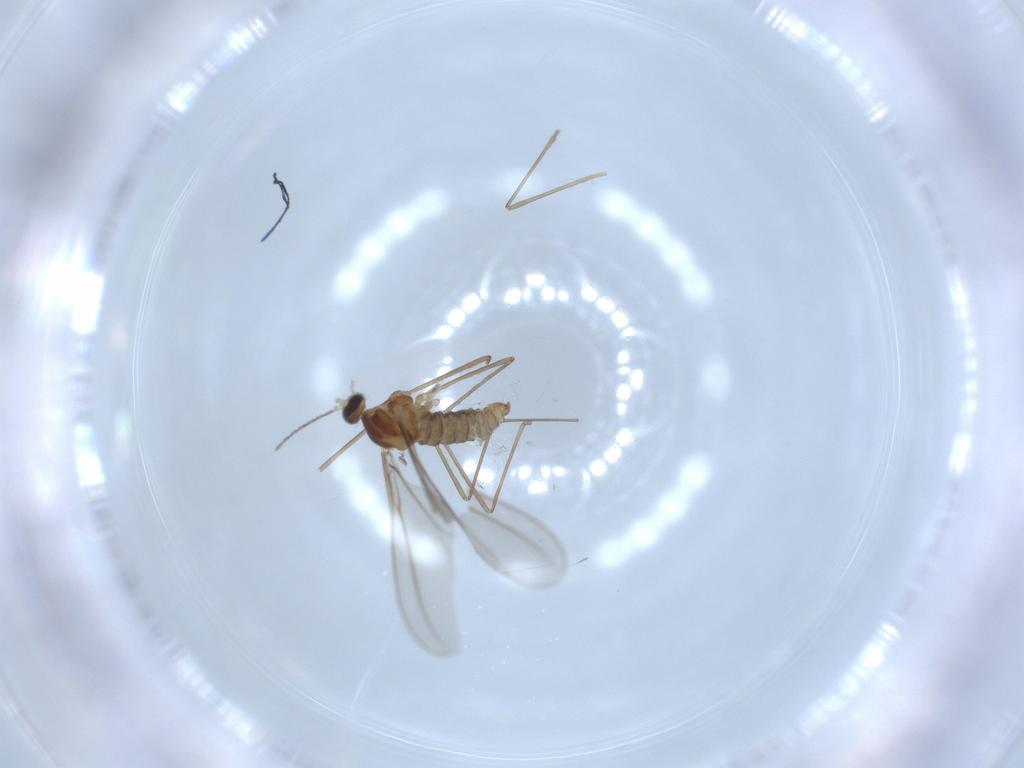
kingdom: Animalia
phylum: Arthropoda
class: Insecta
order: Diptera
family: Cecidomyiidae
